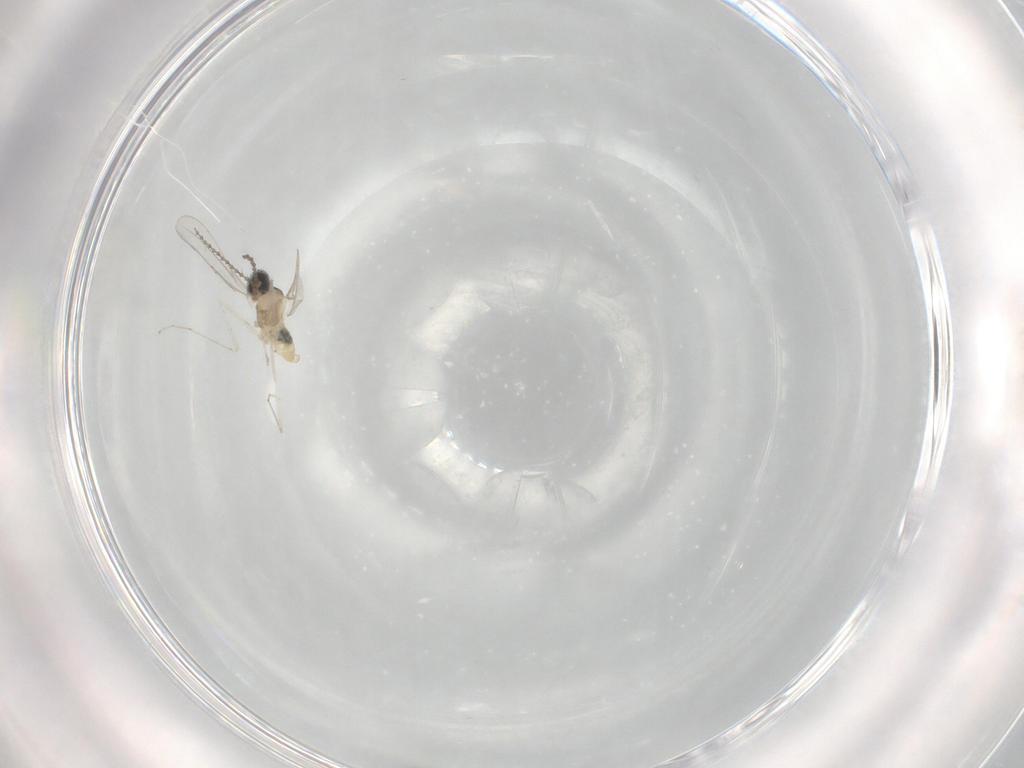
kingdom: Animalia
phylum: Arthropoda
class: Insecta
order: Diptera
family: Cecidomyiidae
